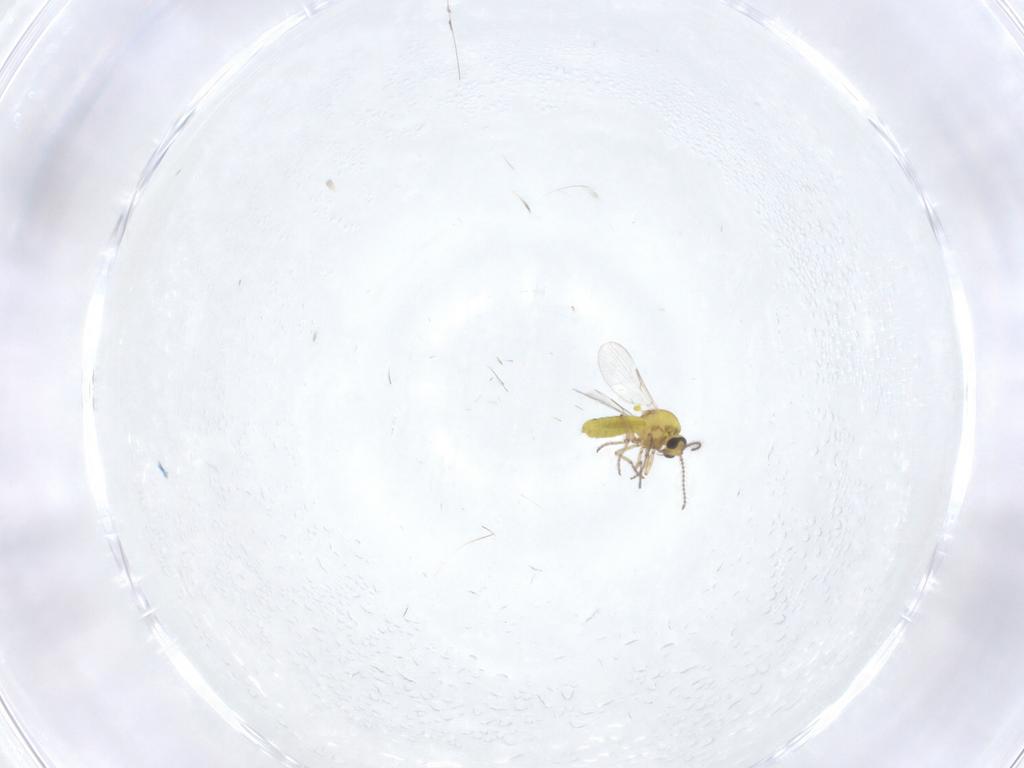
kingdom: Animalia
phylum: Arthropoda
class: Insecta
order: Diptera
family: Ceratopogonidae
